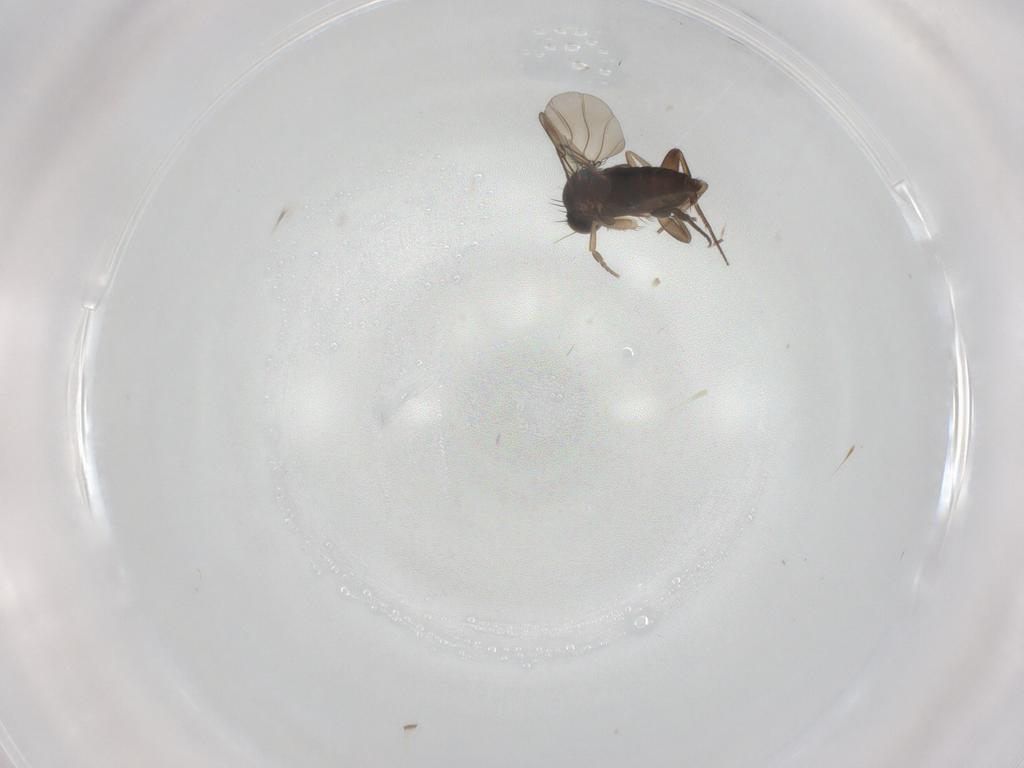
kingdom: Animalia
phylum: Arthropoda
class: Insecta
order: Diptera
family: Phoridae
